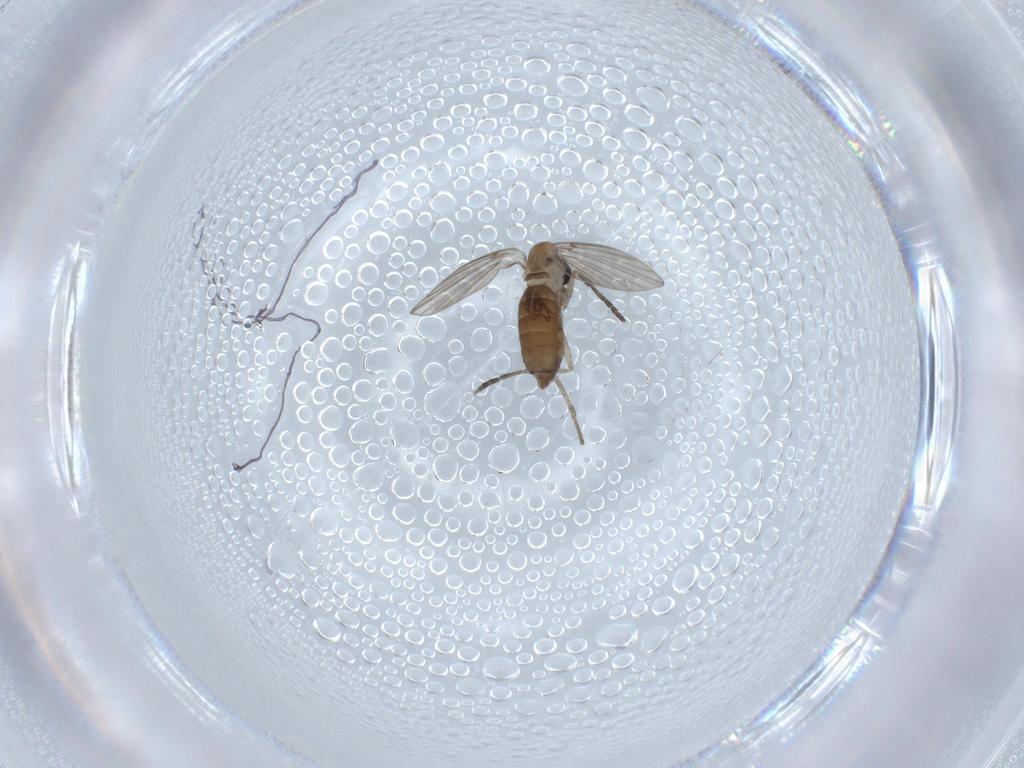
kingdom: Animalia
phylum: Arthropoda
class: Insecta
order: Diptera
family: Psychodidae
